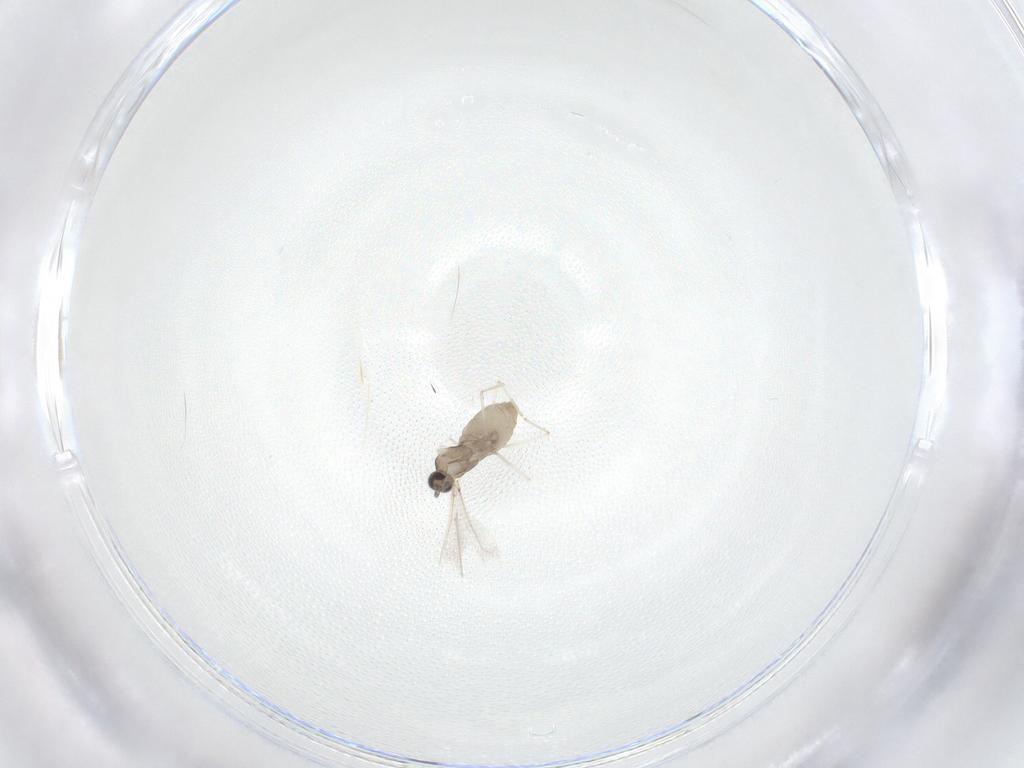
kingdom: Animalia
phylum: Arthropoda
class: Insecta
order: Diptera
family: Cecidomyiidae
